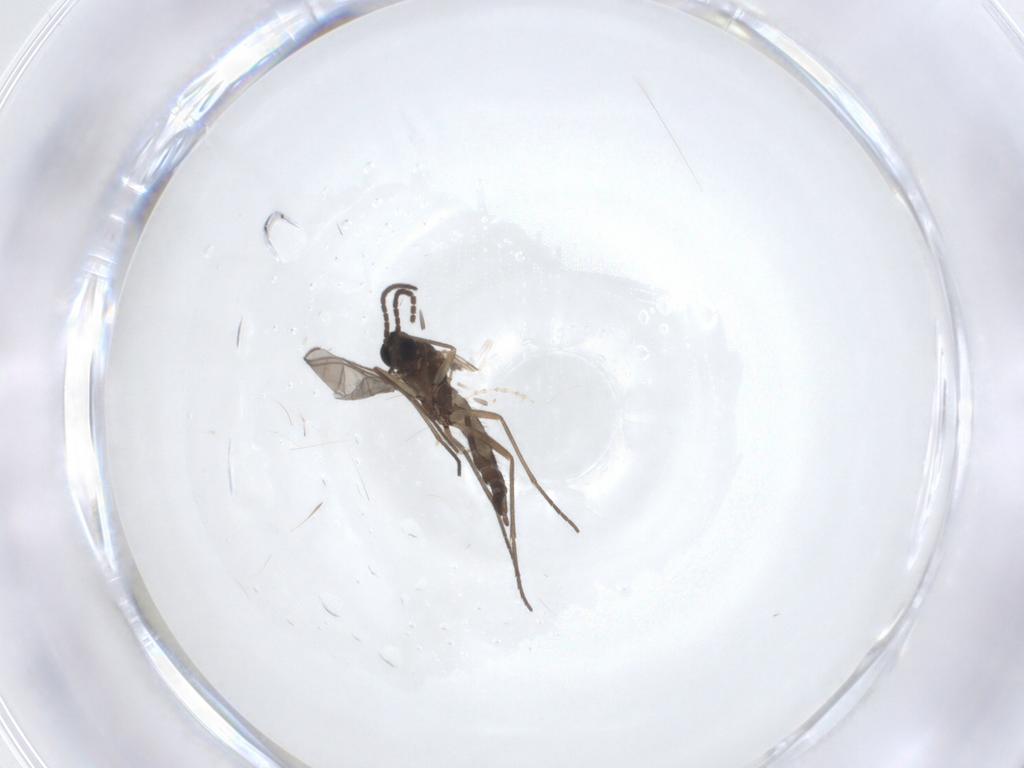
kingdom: Animalia
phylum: Arthropoda
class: Insecta
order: Diptera
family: Sciaridae
